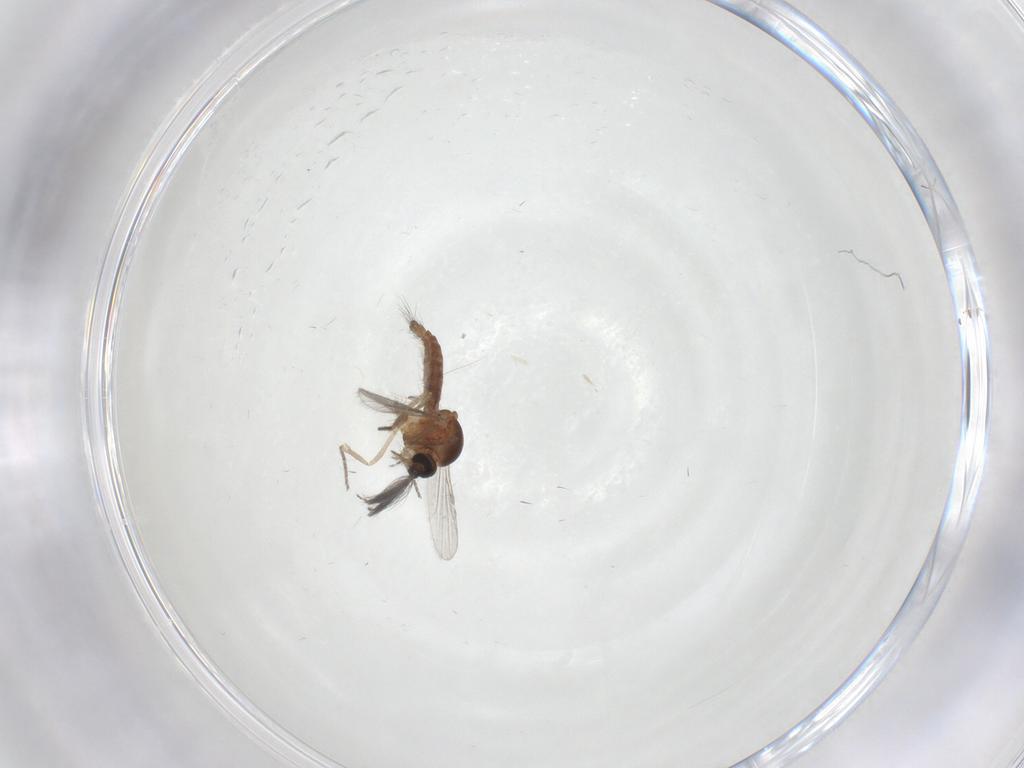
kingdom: Animalia
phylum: Arthropoda
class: Insecta
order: Diptera
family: Ceratopogonidae
